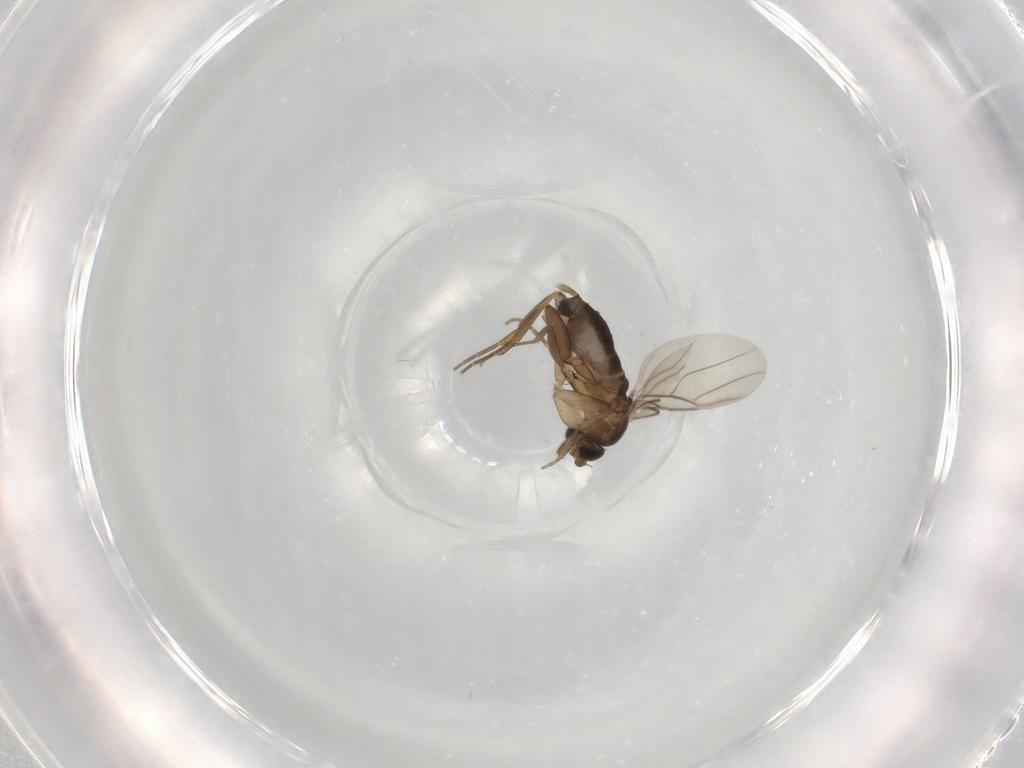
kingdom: Animalia
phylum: Arthropoda
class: Insecta
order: Diptera
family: Phoridae
